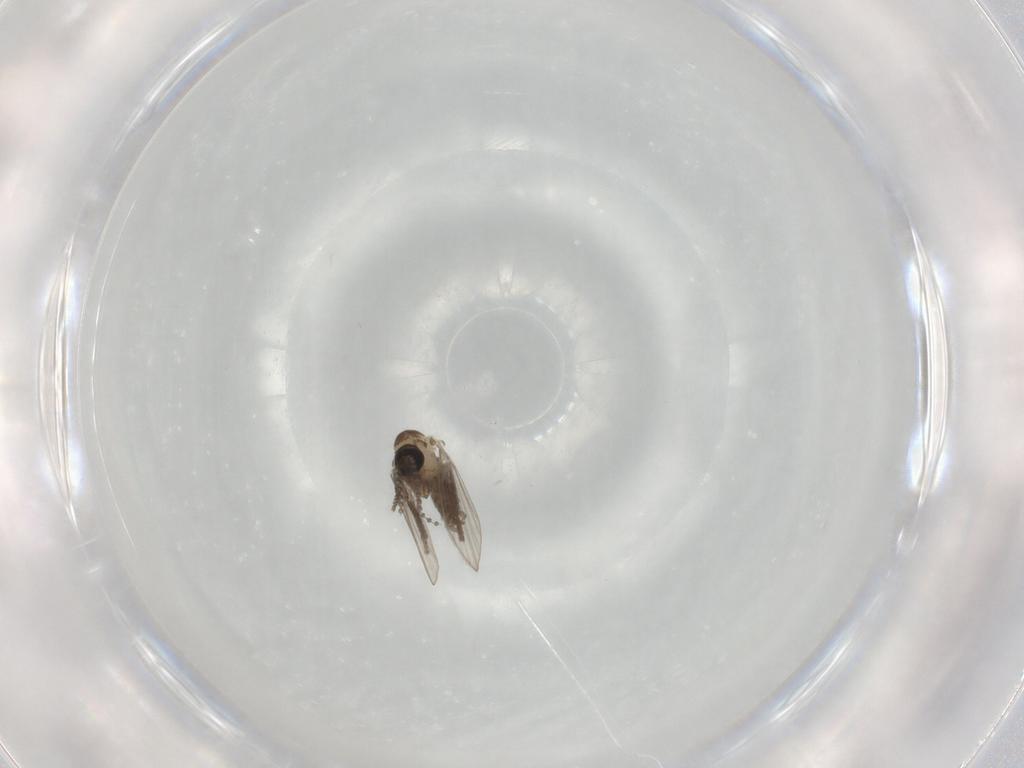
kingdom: Animalia
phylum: Arthropoda
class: Insecta
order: Diptera
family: Psychodidae
